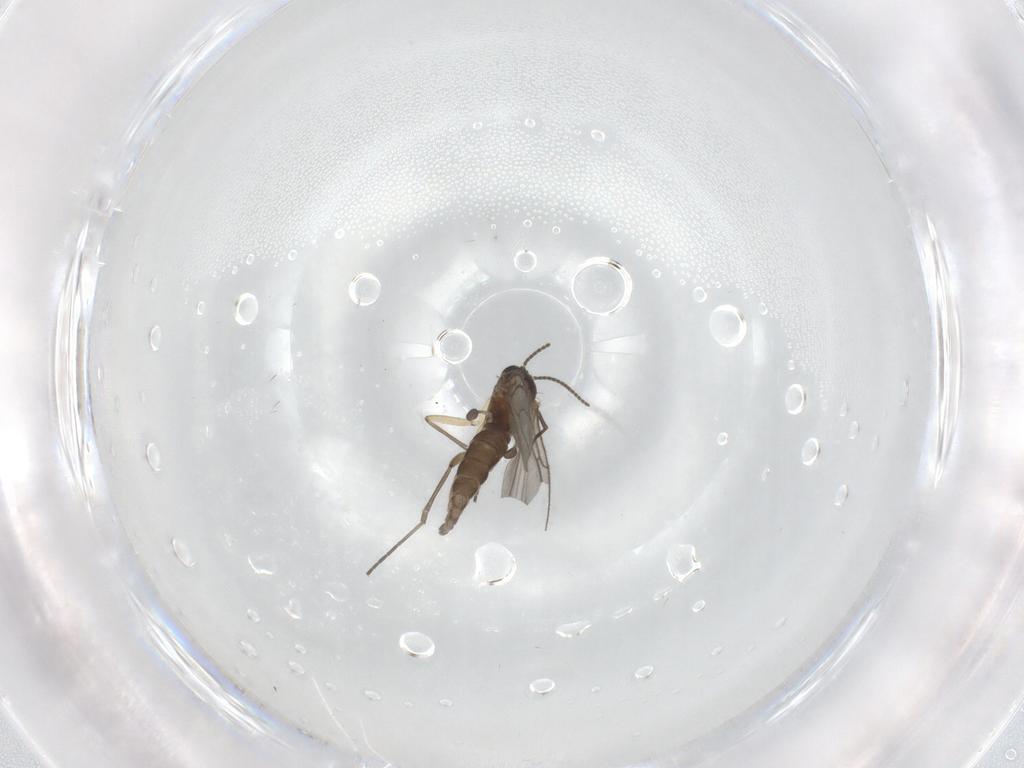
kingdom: Animalia
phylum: Arthropoda
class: Insecta
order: Diptera
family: Sciaridae
